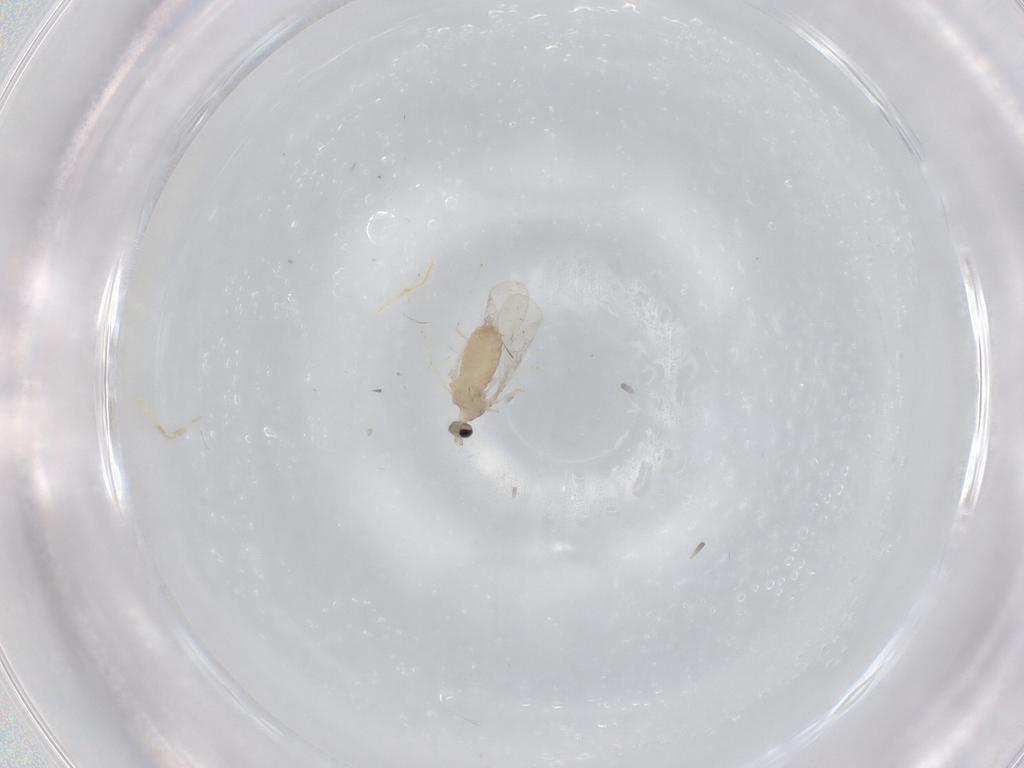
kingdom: Animalia
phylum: Arthropoda
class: Insecta
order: Diptera
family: Cecidomyiidae
